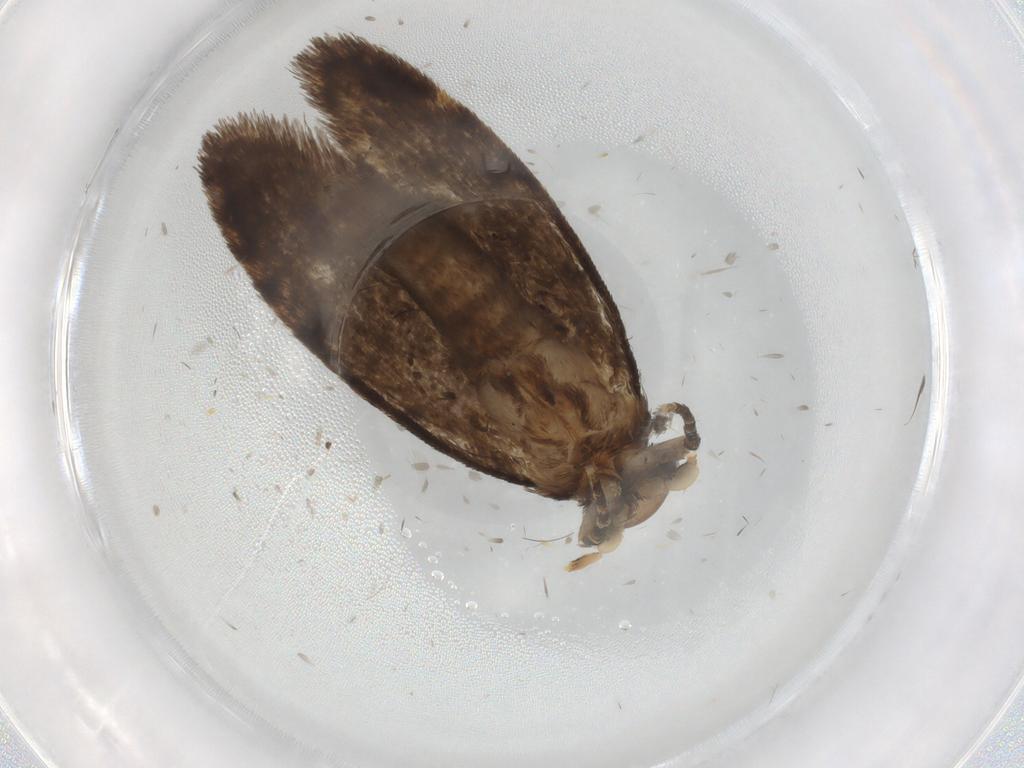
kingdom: Animalia
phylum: Arthropoda
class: Insecta
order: Lepidoptera
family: Tineidae
